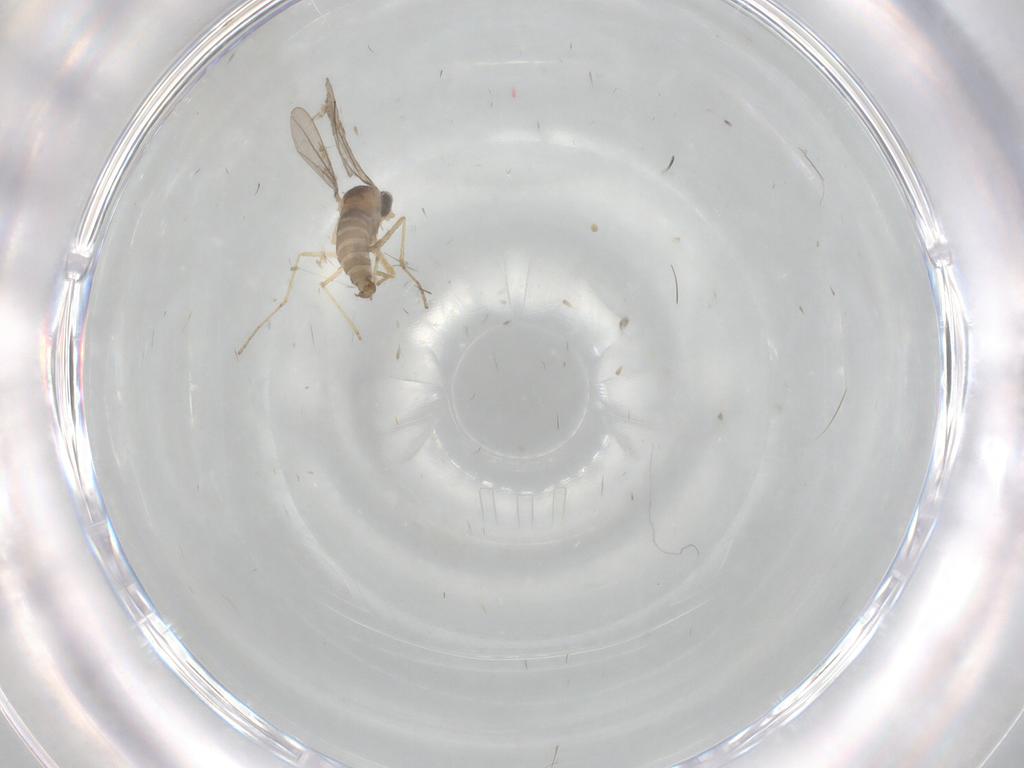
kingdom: Animalia
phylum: Arthropoda
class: Insecta
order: Diptera
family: Cecidomyiidae
